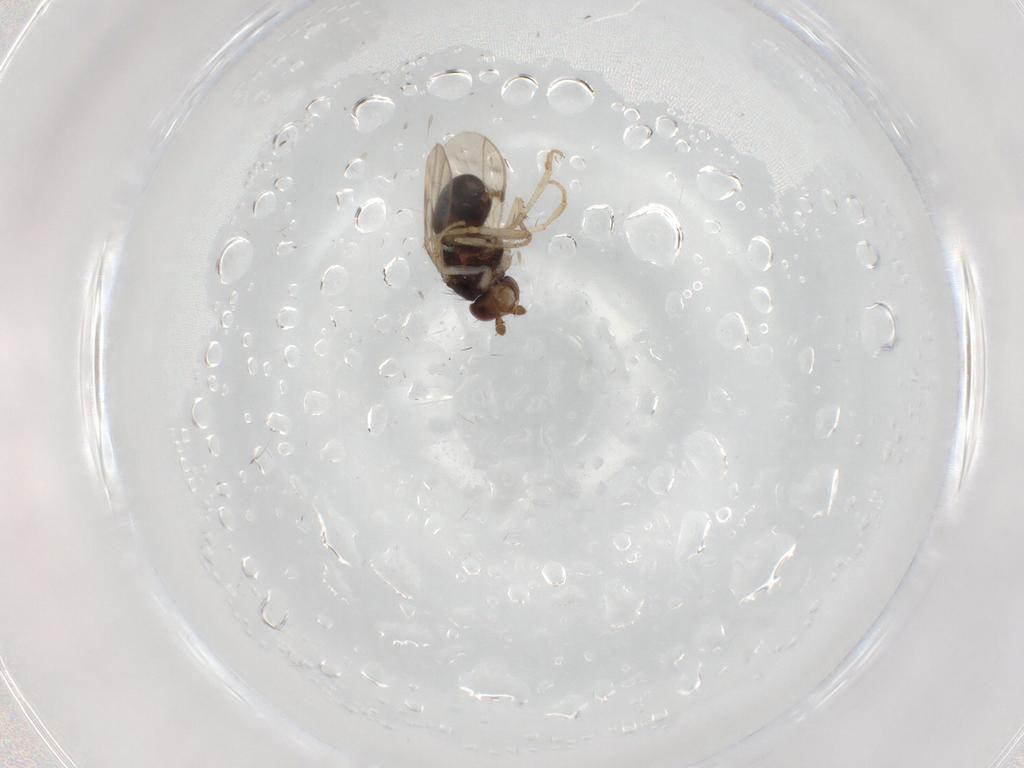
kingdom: Animalia
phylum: Arthropoda
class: Insecta
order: Diptera
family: Sphaeroceridae
